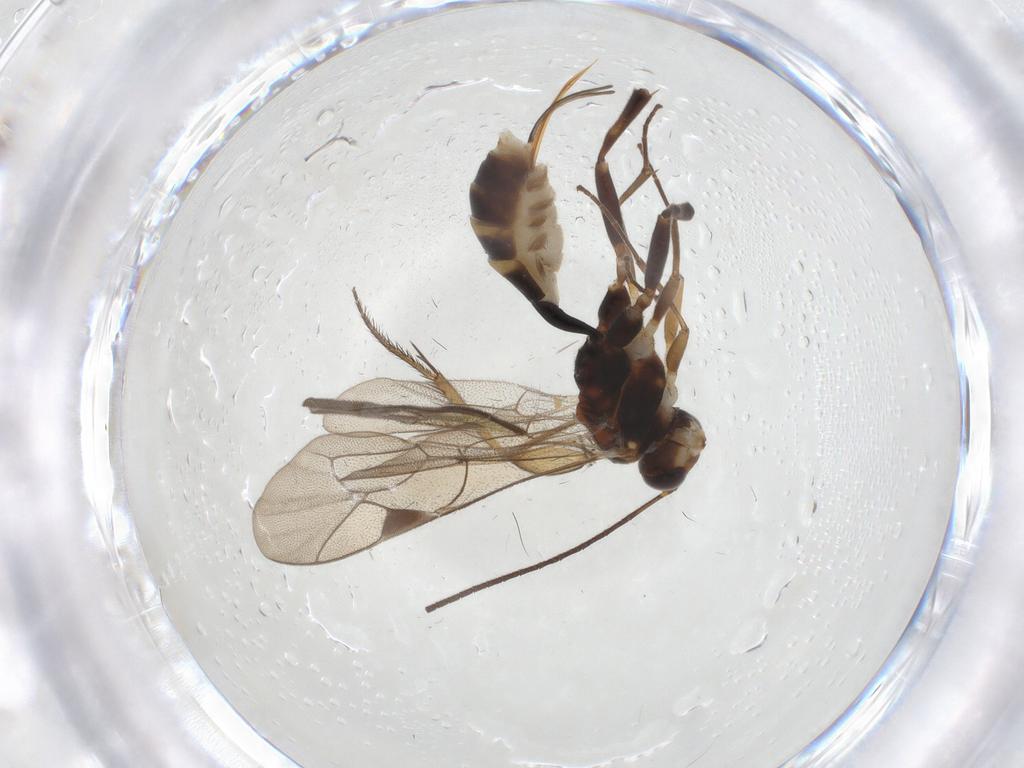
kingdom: Animalia
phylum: Arthropoda
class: Insecta
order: Hymenoptera
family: Ichneumonidae
